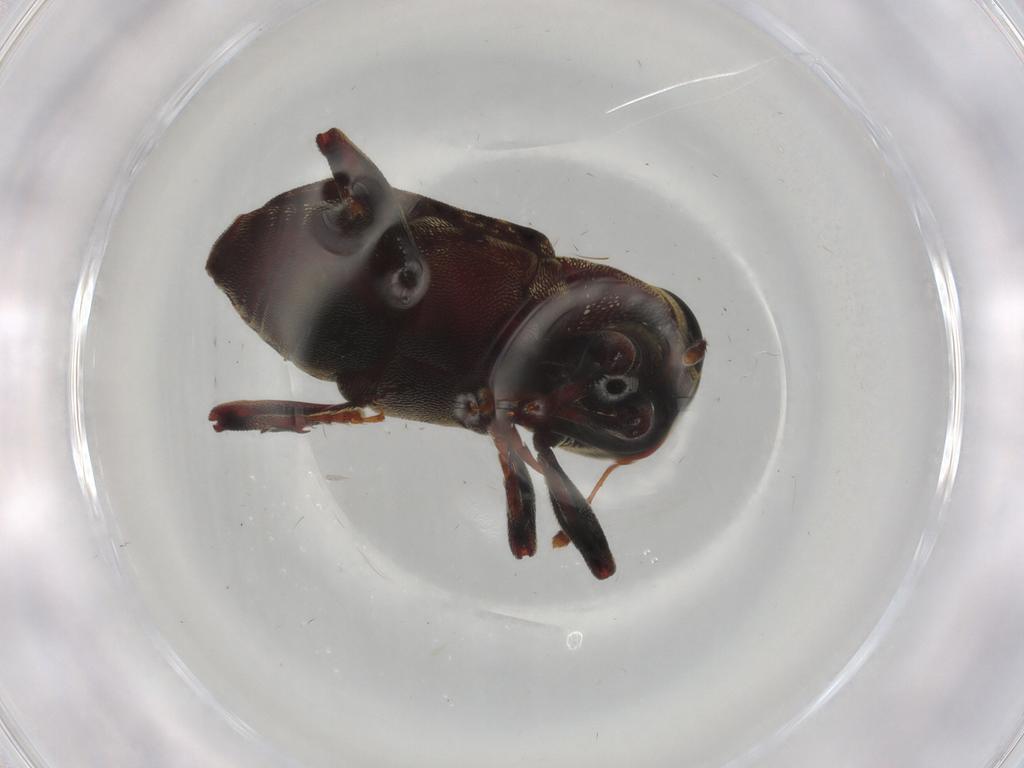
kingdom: Animalia
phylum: Arthropoda
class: Insecta
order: Coleoptera
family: Curculionidae
